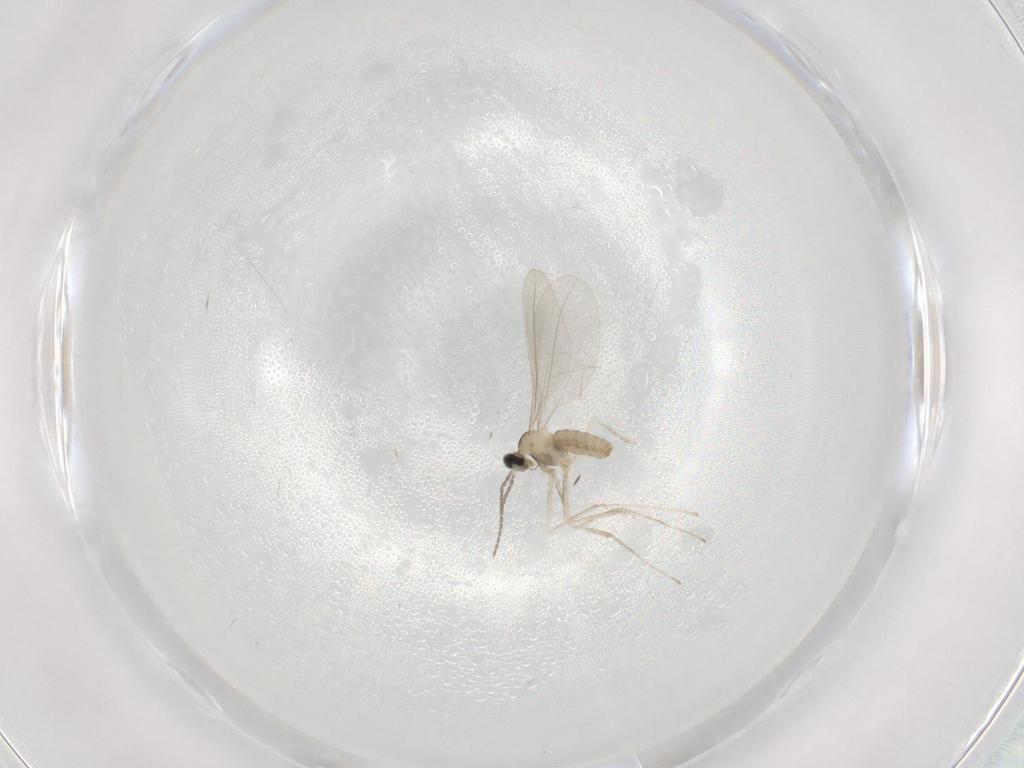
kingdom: Animalia
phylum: Arthropoda
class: Insecta
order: Diptera
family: Cecidomyiidae
